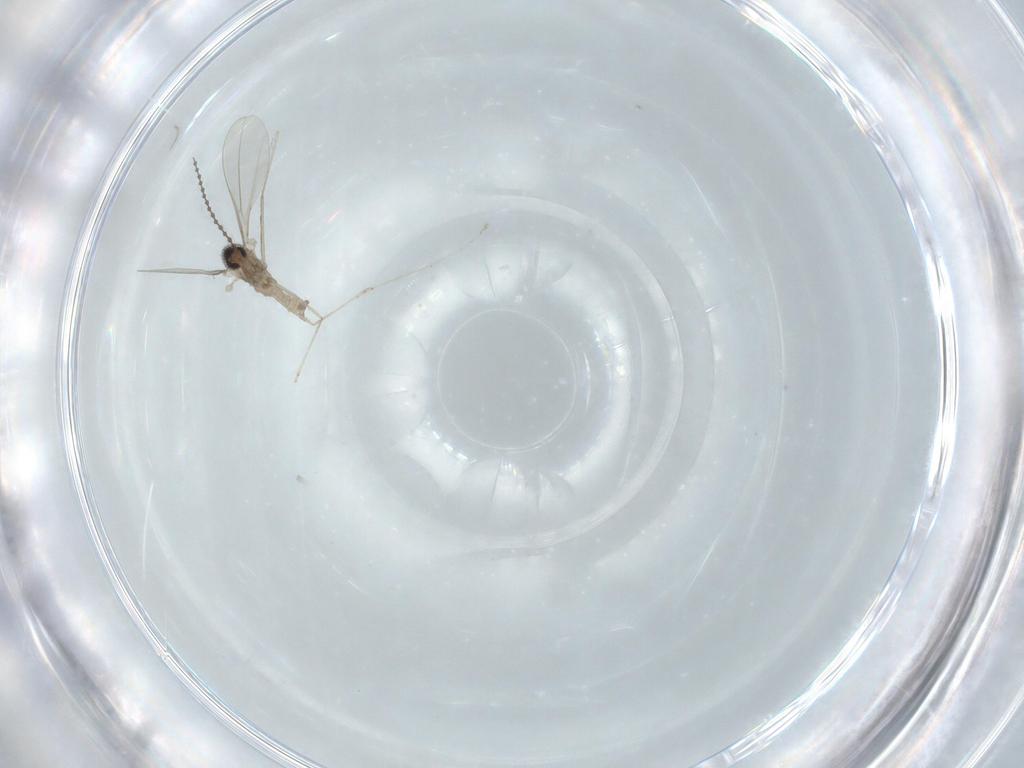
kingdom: Animalia
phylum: Arthropoda
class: Insecta
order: Diptera
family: Cecidomyiidae
